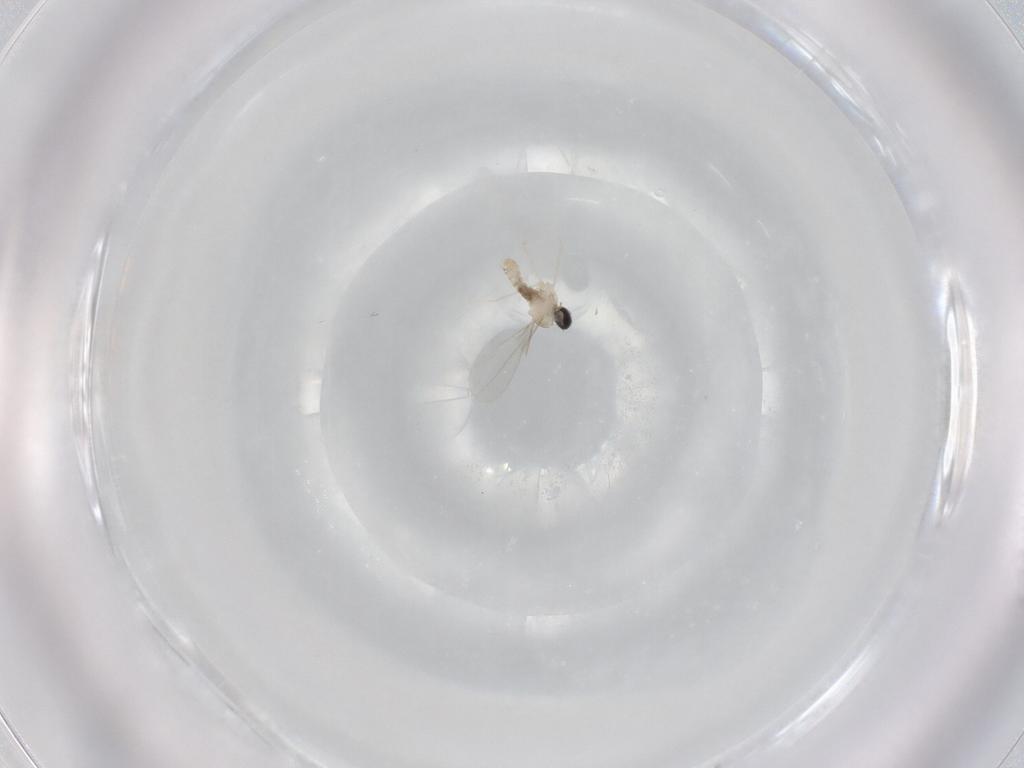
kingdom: Animalia
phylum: Arthropoda
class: Insecta
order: Diptera
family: Cecidomyiidae
